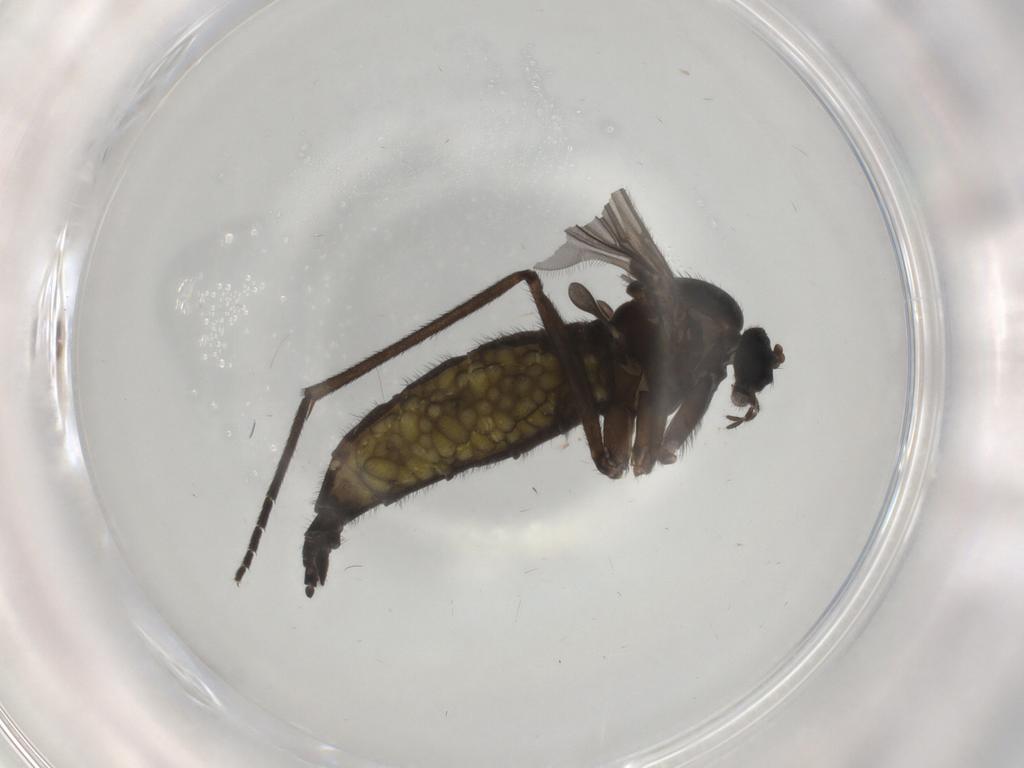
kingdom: Animalia
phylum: Arthropoda
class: Insecta
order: Diptera
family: Sciaridae
